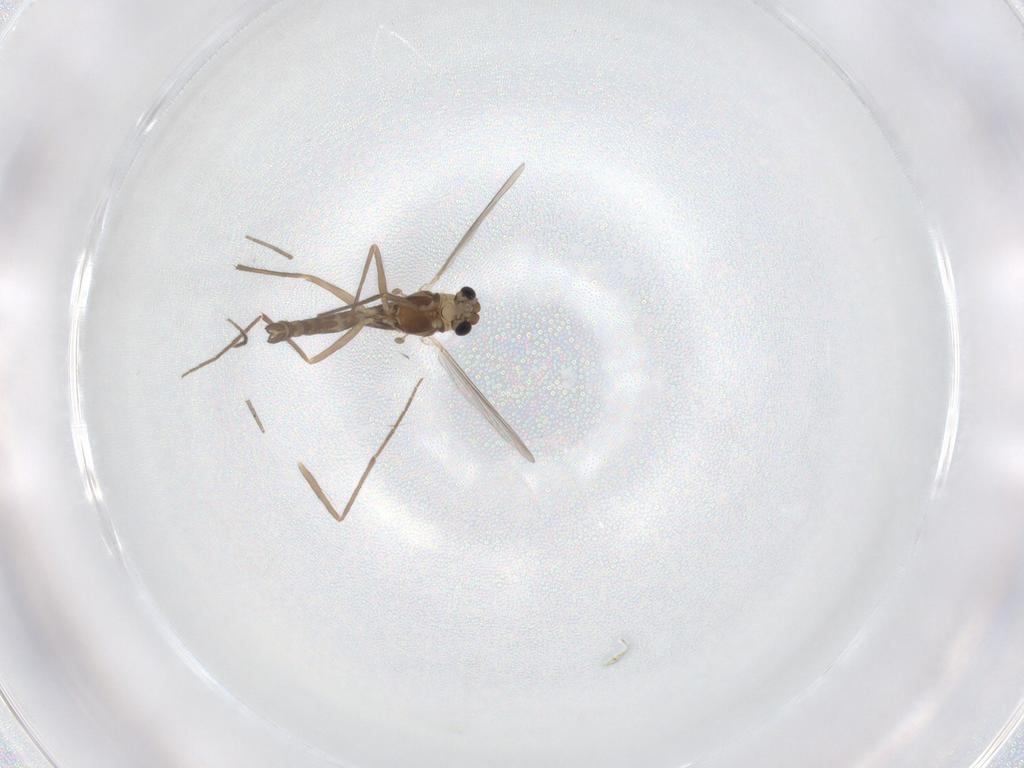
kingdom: Animalia
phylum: Arthropoda
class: Insecta
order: Diptera
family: Chironomidae
